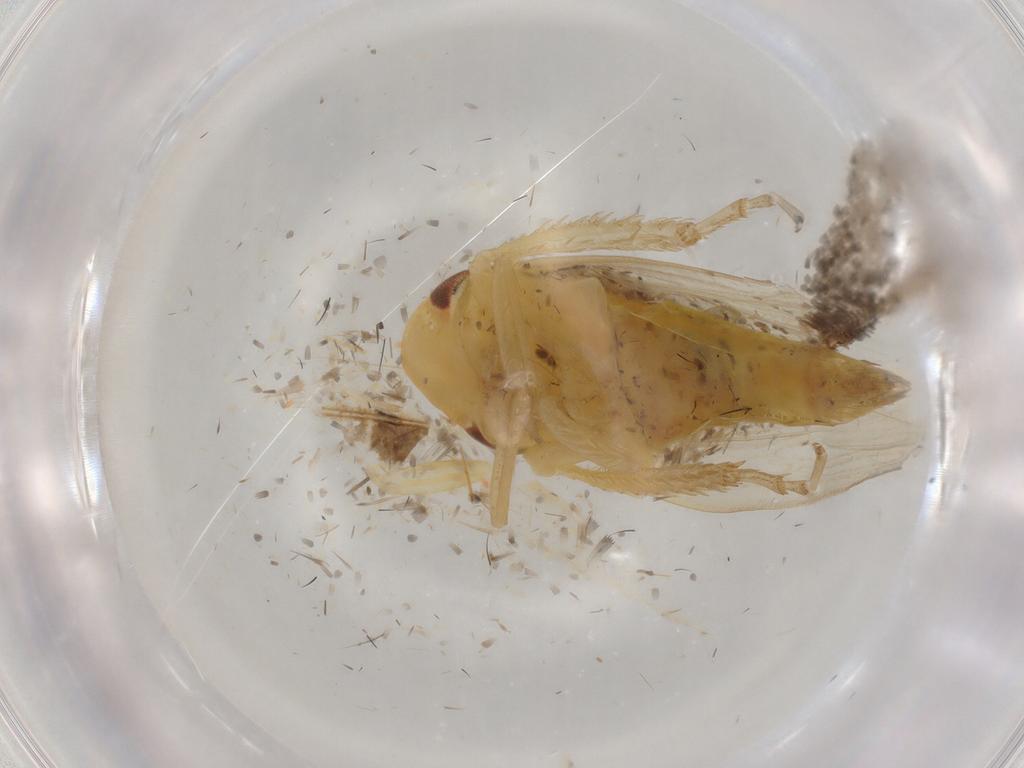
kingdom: Animalia
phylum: Arthropoda
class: Insecta
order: Hemiptera
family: Cicadellidae
